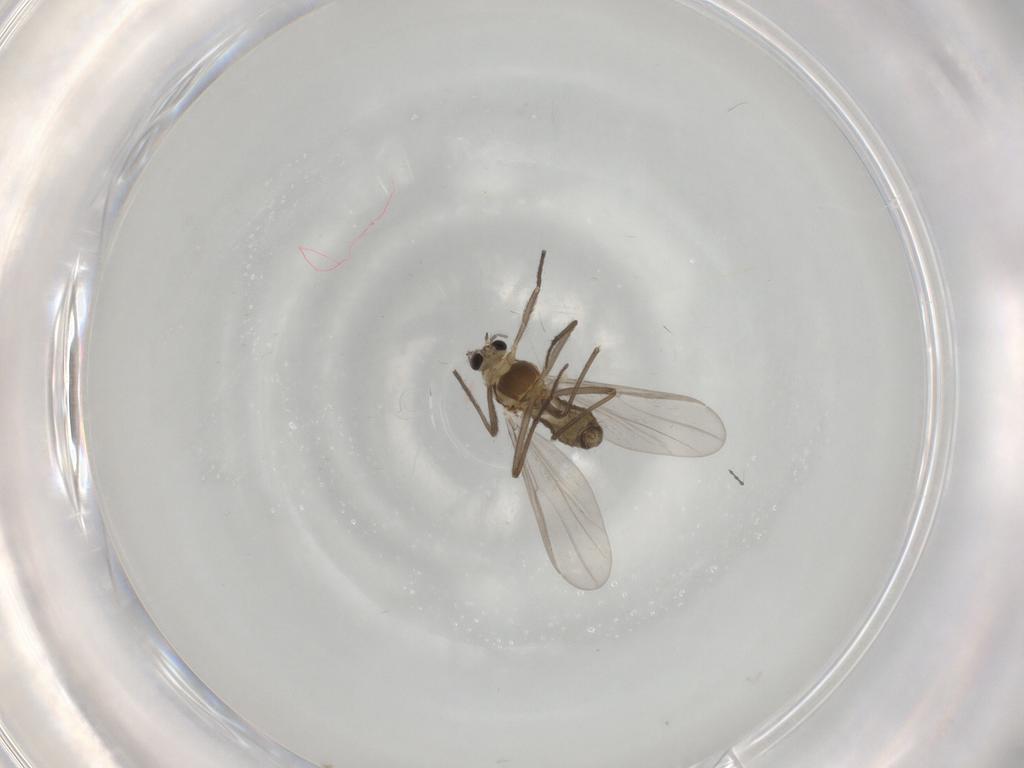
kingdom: Animalia
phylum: Arthropoda
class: Insecta
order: Diptera
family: Chironomidae
